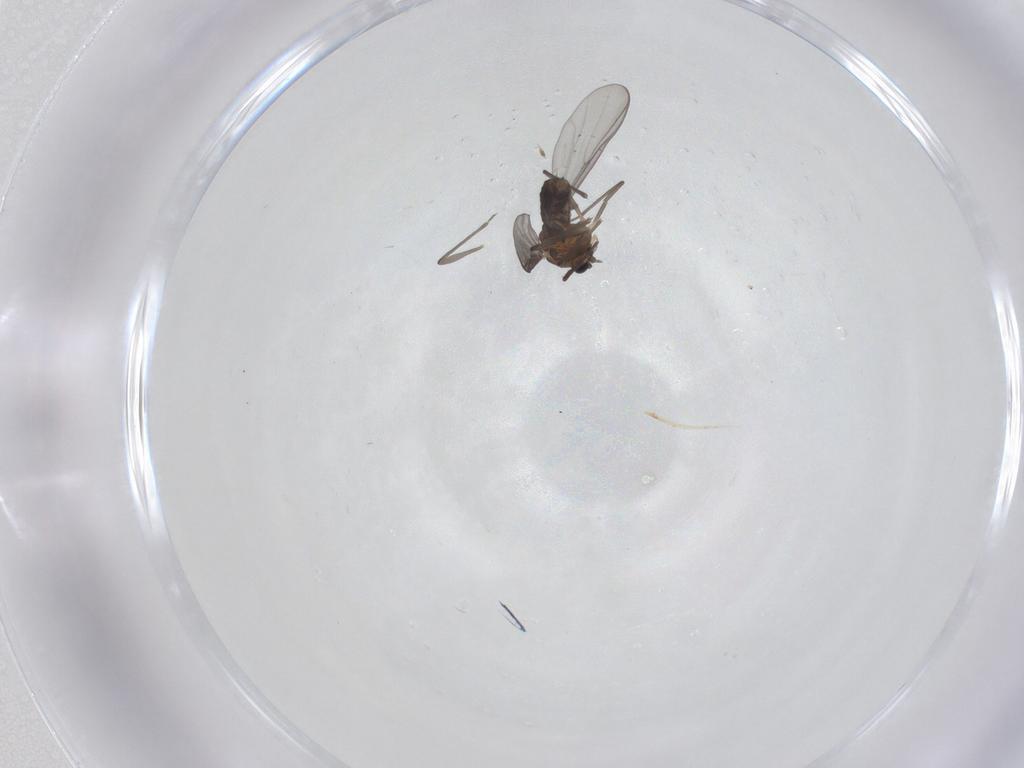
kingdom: Animalia
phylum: Arthropoda
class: Insecta
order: Diptera
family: Chironomidae
